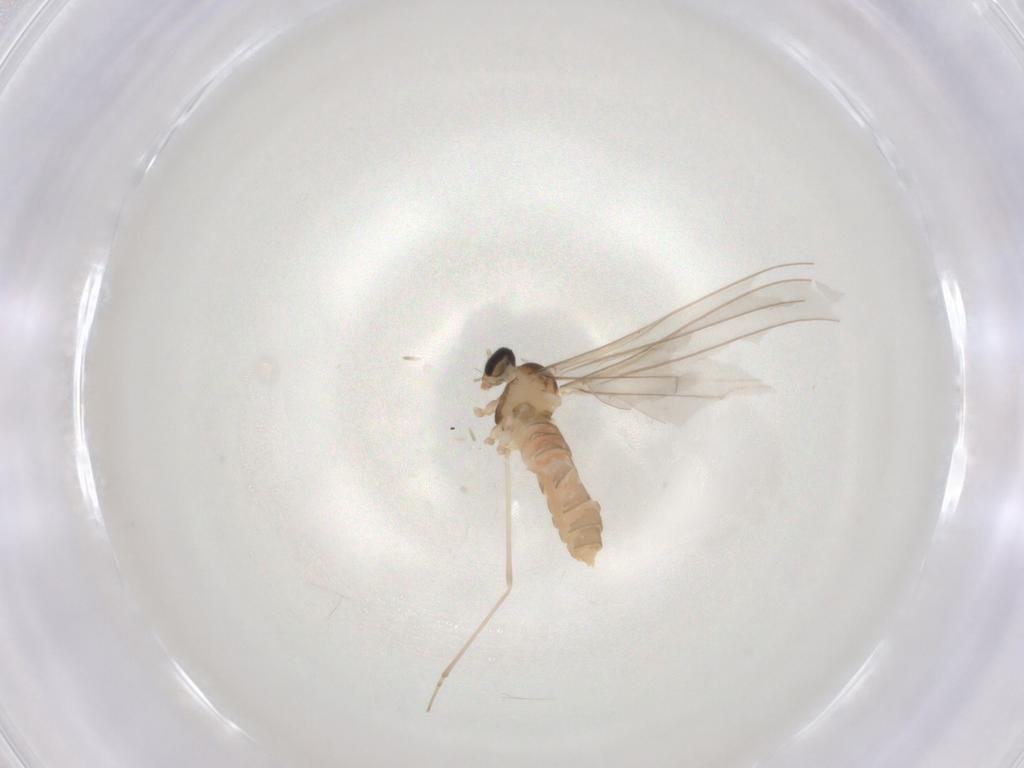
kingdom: Animalia
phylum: Arthropoda
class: Insecta
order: Diptera
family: Cecidomyiidae
